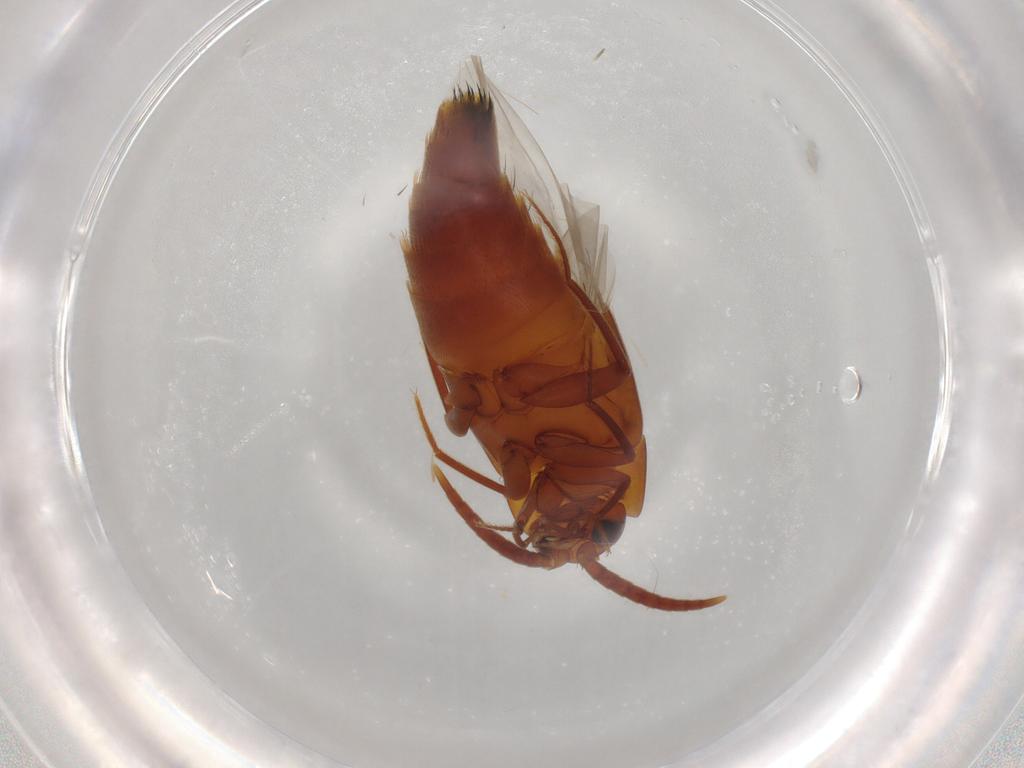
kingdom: Animalia
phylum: Arthropoda
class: Insecta
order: Coleoptera
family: Staphylinidae
